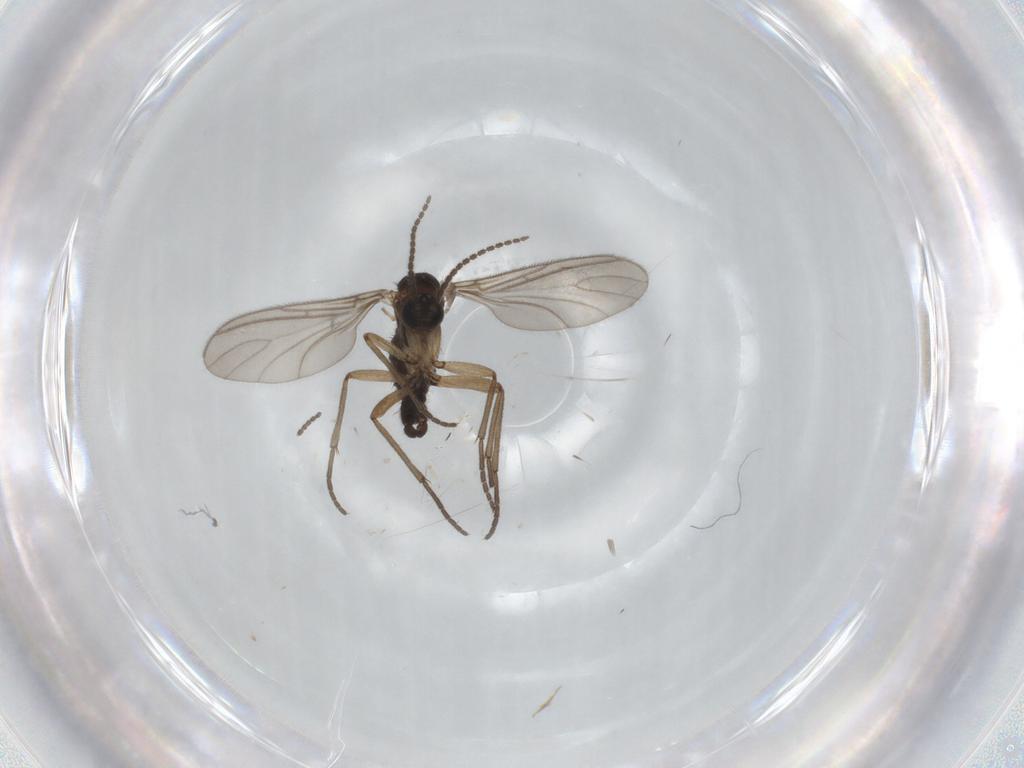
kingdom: Animalia
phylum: Arthropoda
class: Insecta
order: Diptera
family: Sciaridae
